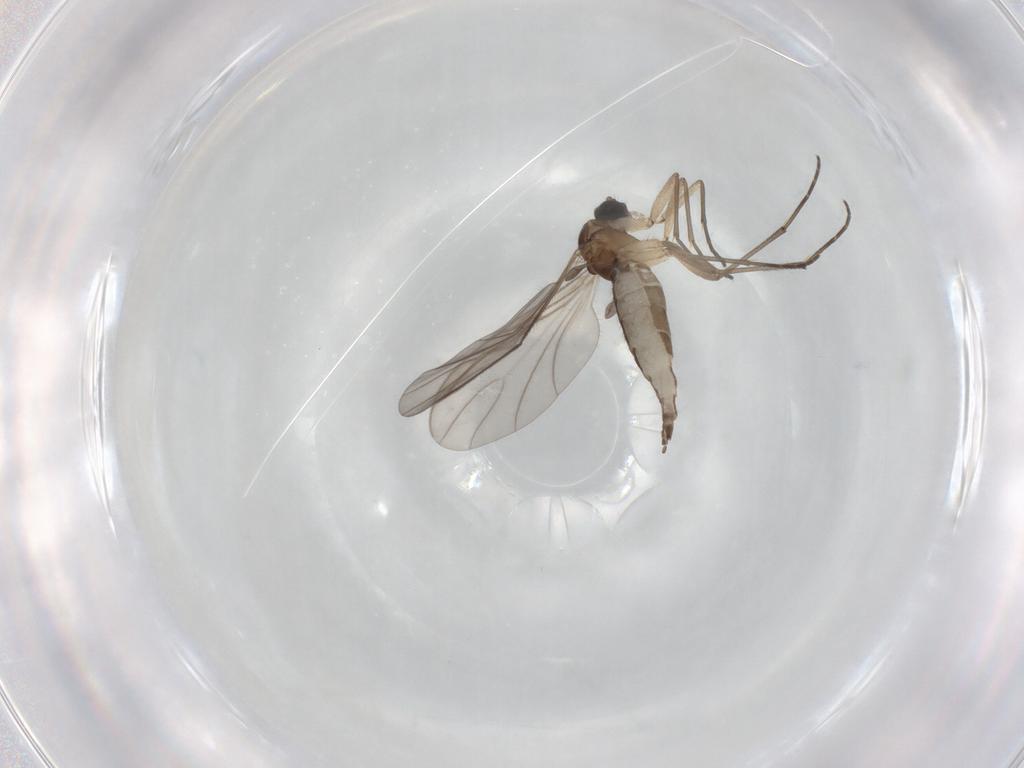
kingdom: Animalia
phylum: Arthropoda
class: Insecta
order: Diptera
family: Sciaridae
